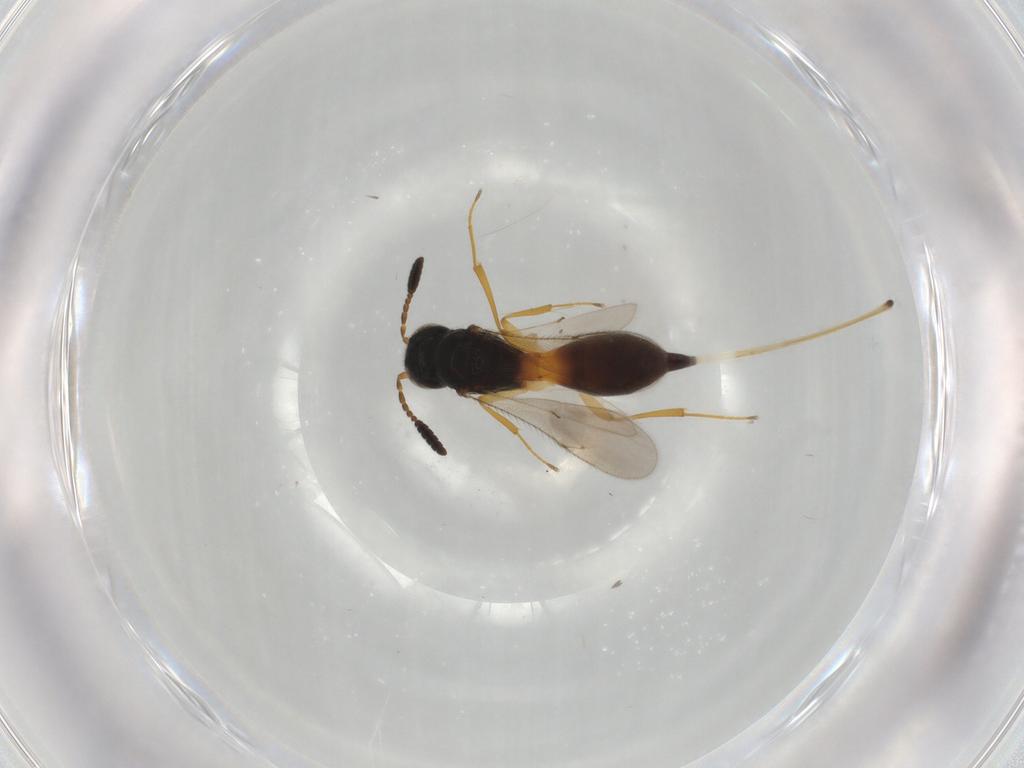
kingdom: Animalia
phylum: Arthropoda
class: Insecta
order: Hymenoptera
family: Scelionidae
